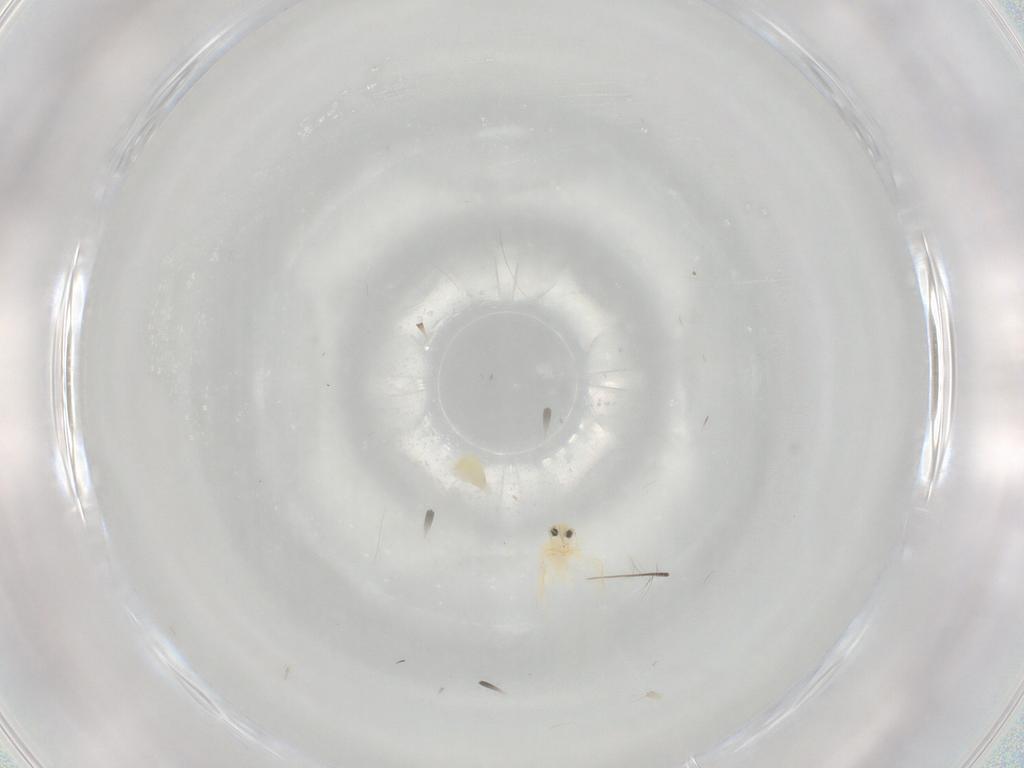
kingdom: Animalia
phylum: Arthropoda
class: Insecta
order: Hemiptera
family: Aleyrodidae
